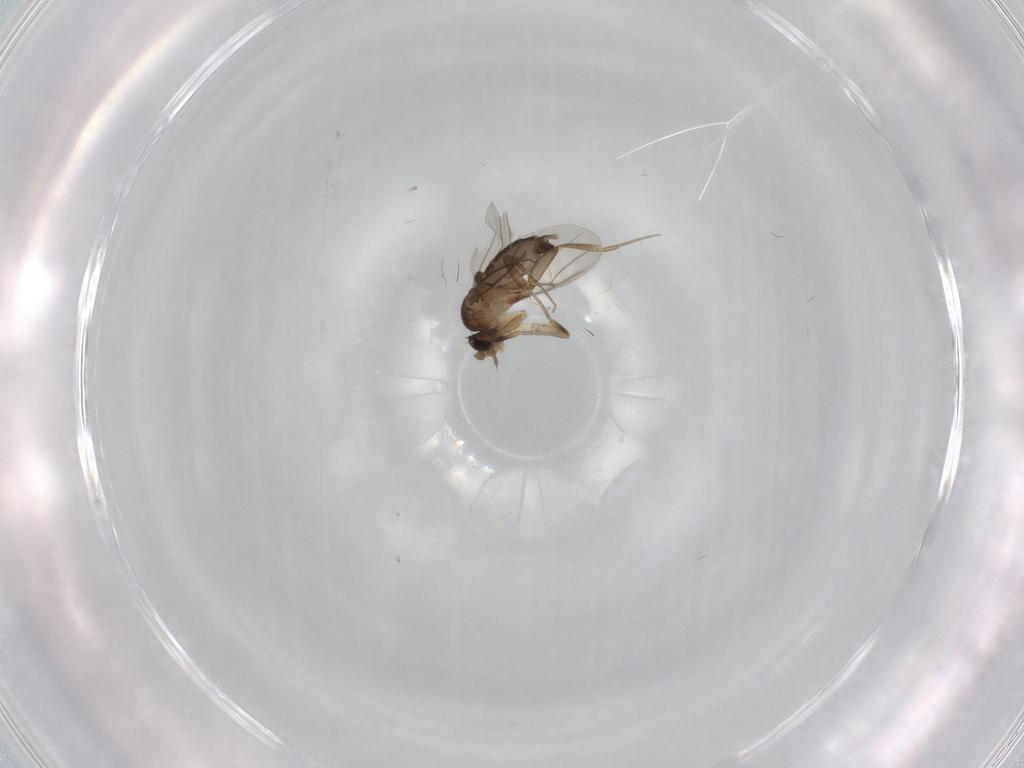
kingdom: Animalia
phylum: Arthropoda
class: Insecta
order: Diptera
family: Phoridae
